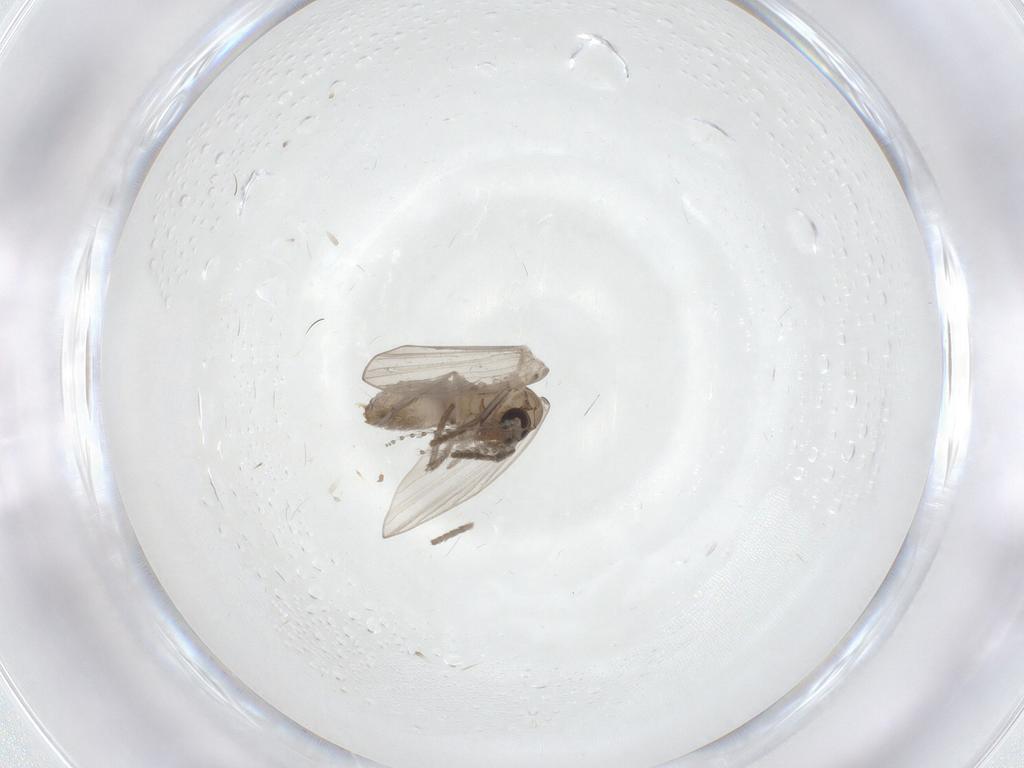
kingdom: Animalia
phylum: Arthropoda
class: Insecta
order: Diptera
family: Psychodidae
